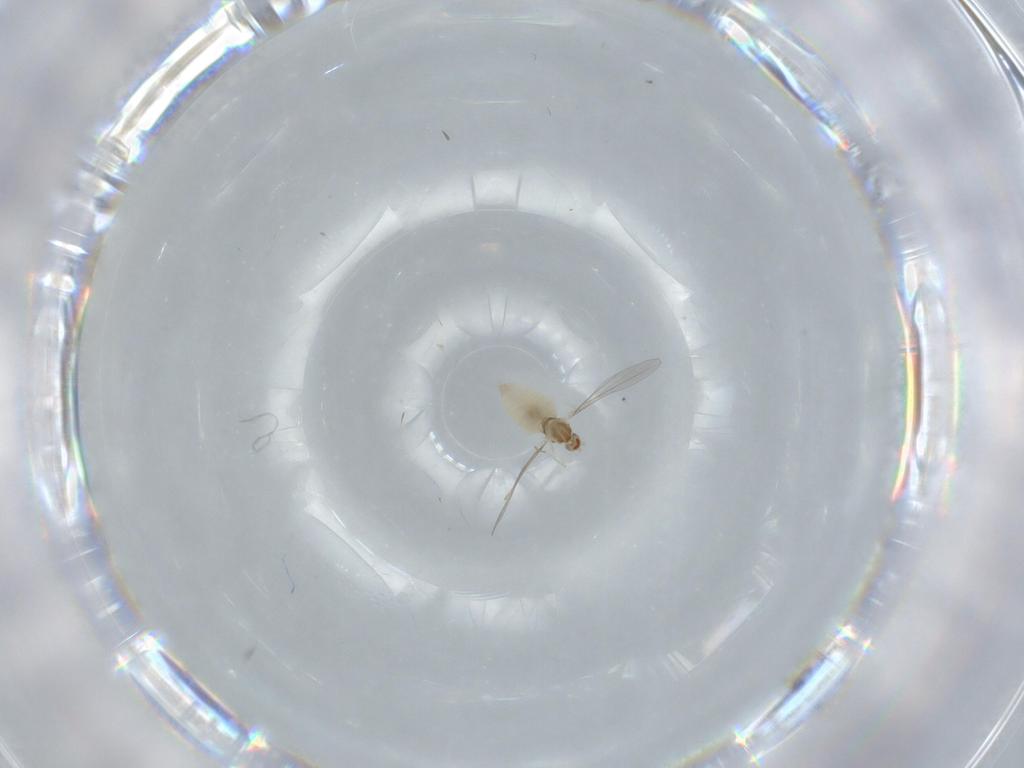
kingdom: Animalia
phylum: Arthropoda
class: Insecta
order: Diptera
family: Cecidomyiidae
